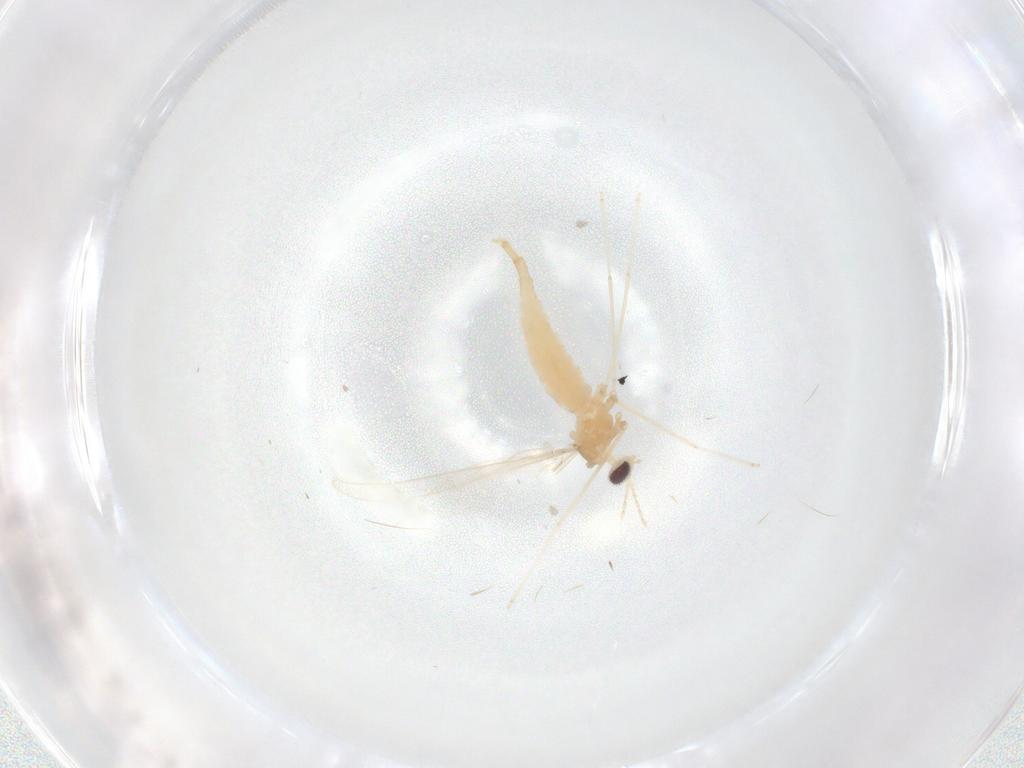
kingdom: Animalia
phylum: Arthropoda
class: Insecta
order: Diptera
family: Cecidomyiidae
